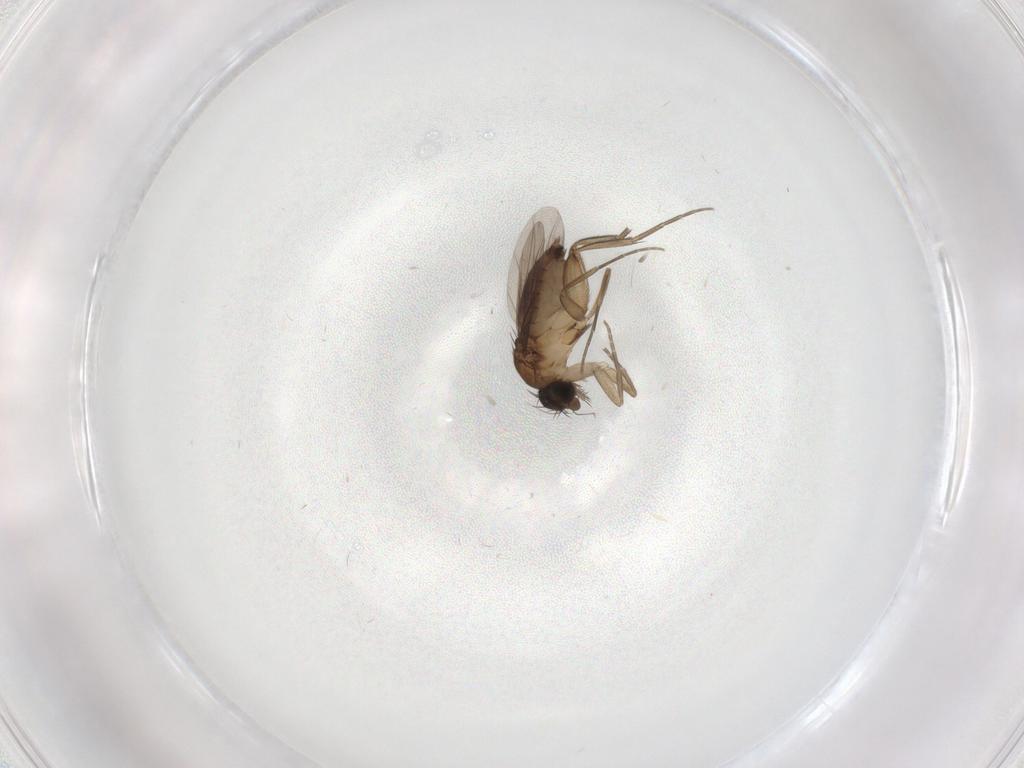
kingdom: Animalia
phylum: Arthropoda
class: Insecta
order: Diptera
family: Phoridae
